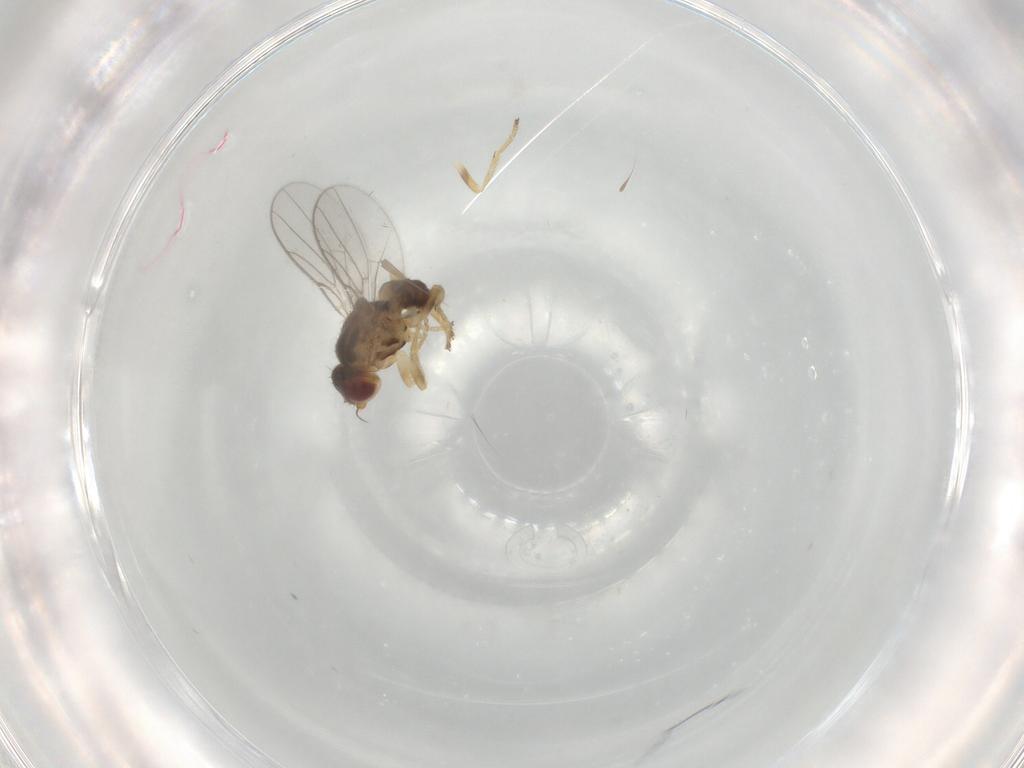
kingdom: Animalia
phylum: Arthropoda
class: Insecta
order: Diptera
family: Chloropidae
